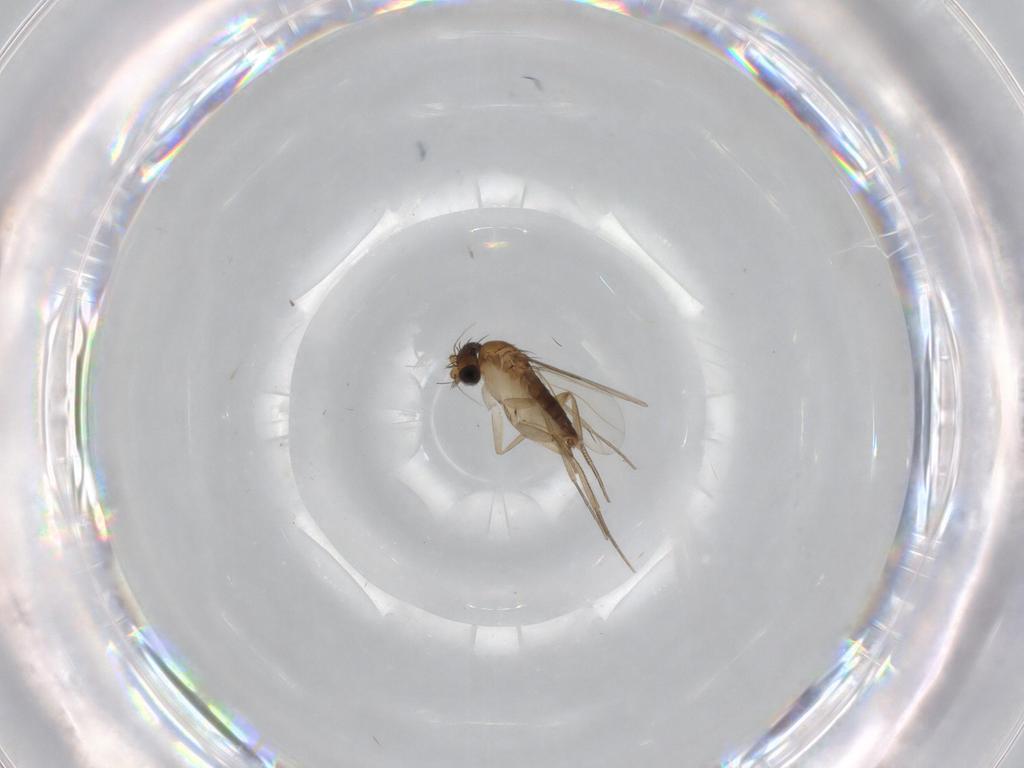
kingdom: Animalia
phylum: Arthropoda
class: Insecta
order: Diptera
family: Phoridae
